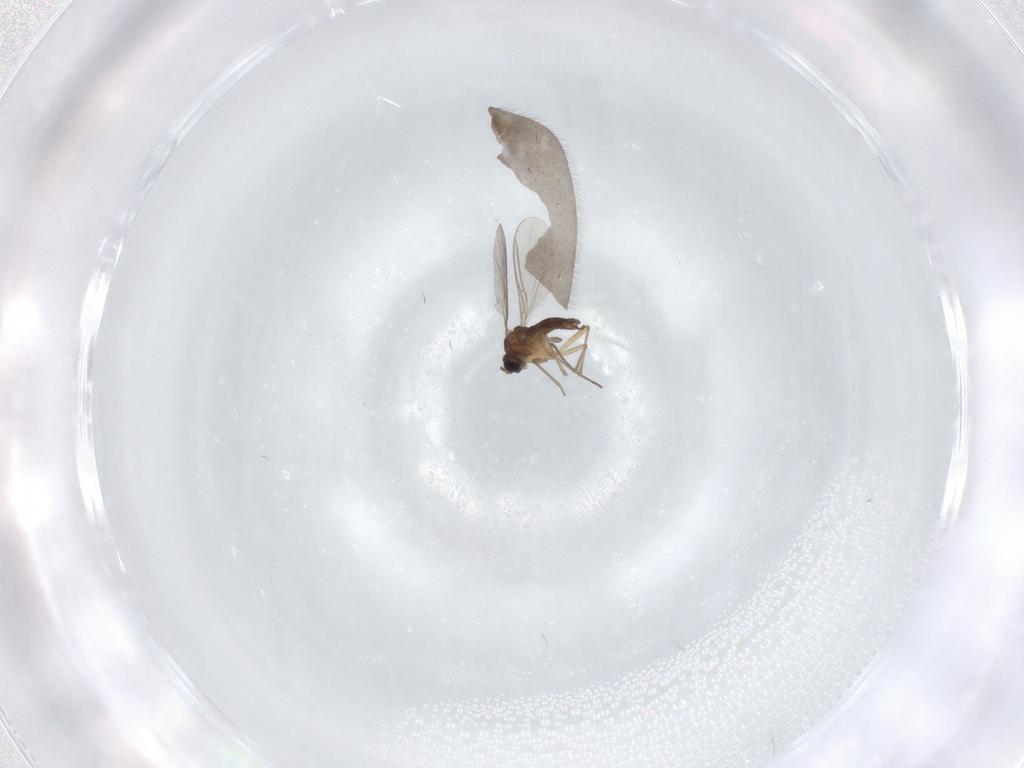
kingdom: Animalia
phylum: Arthropoda
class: Insecta
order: Diptera
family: Sciaridae
